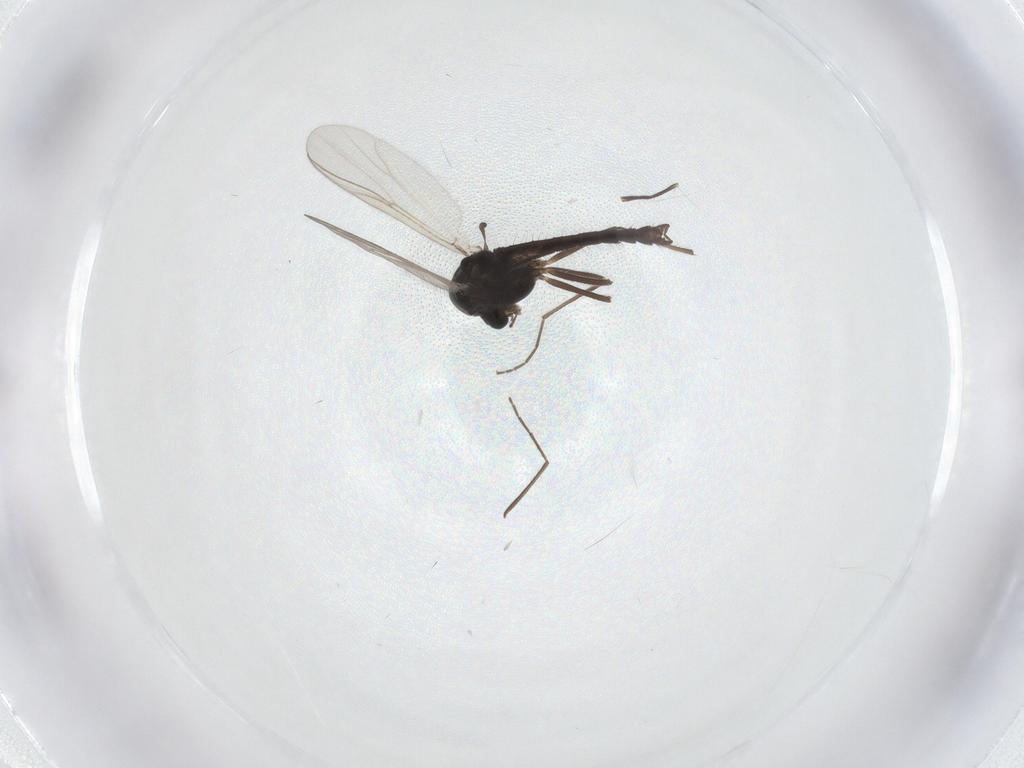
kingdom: Animalia
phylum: Arthropoda
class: Insecta
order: Diptera
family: Chironomidae
